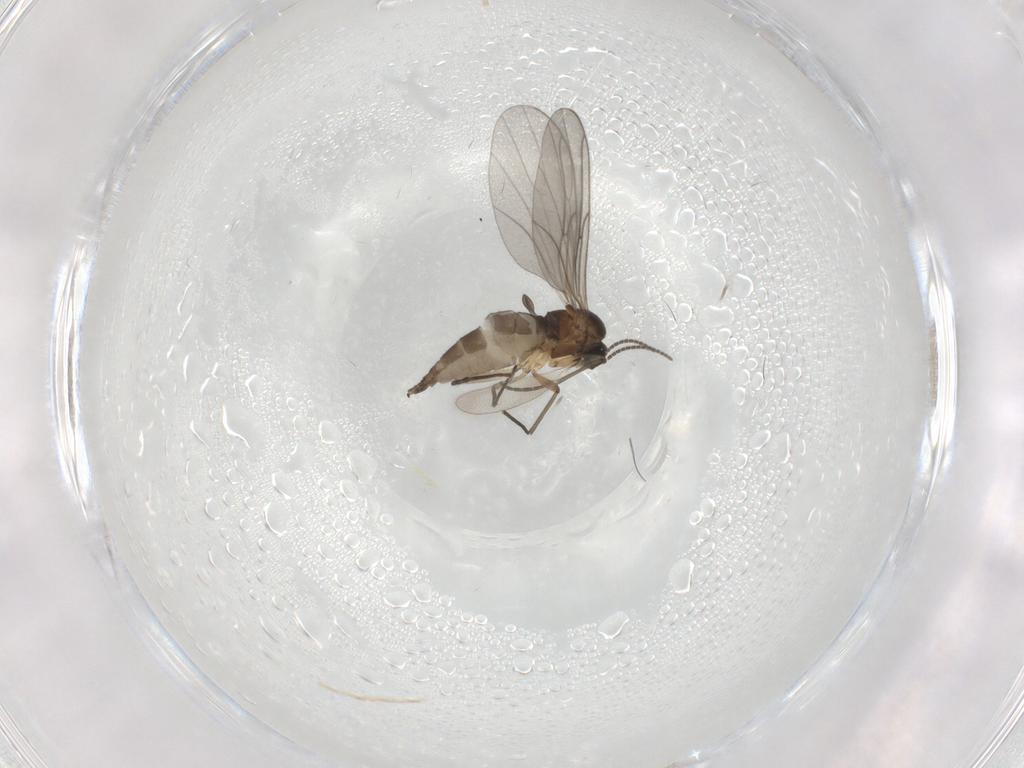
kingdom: Animalia
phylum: Arthropoda
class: Insecta
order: Diptera
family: Sciaridae
